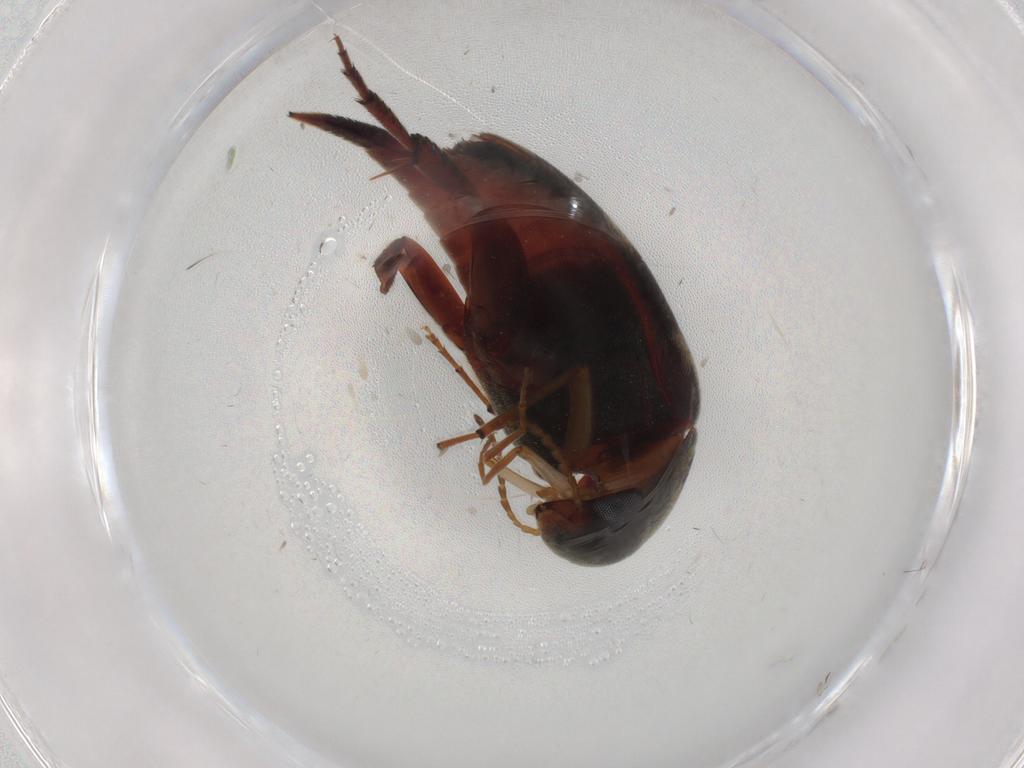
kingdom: Animalia
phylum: Arthropoda
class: Insecta
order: Coleoptera
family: Mordellidae
